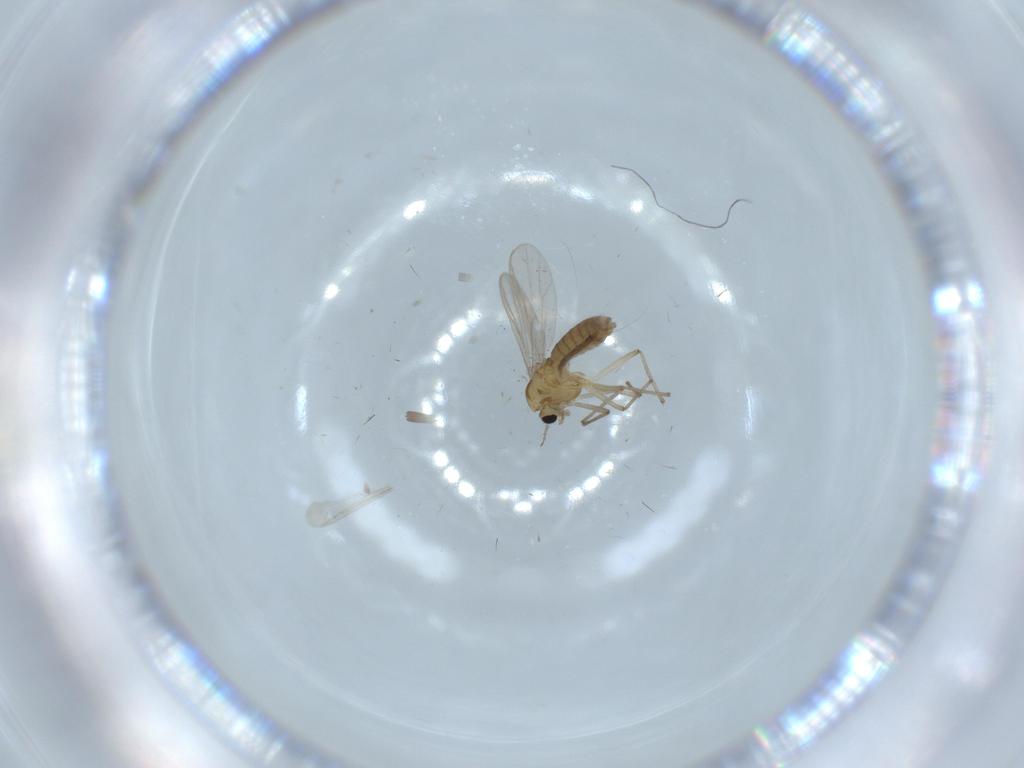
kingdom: Animalia
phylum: Arthropoda
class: Insecta
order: Diptera
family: Chironomidae
